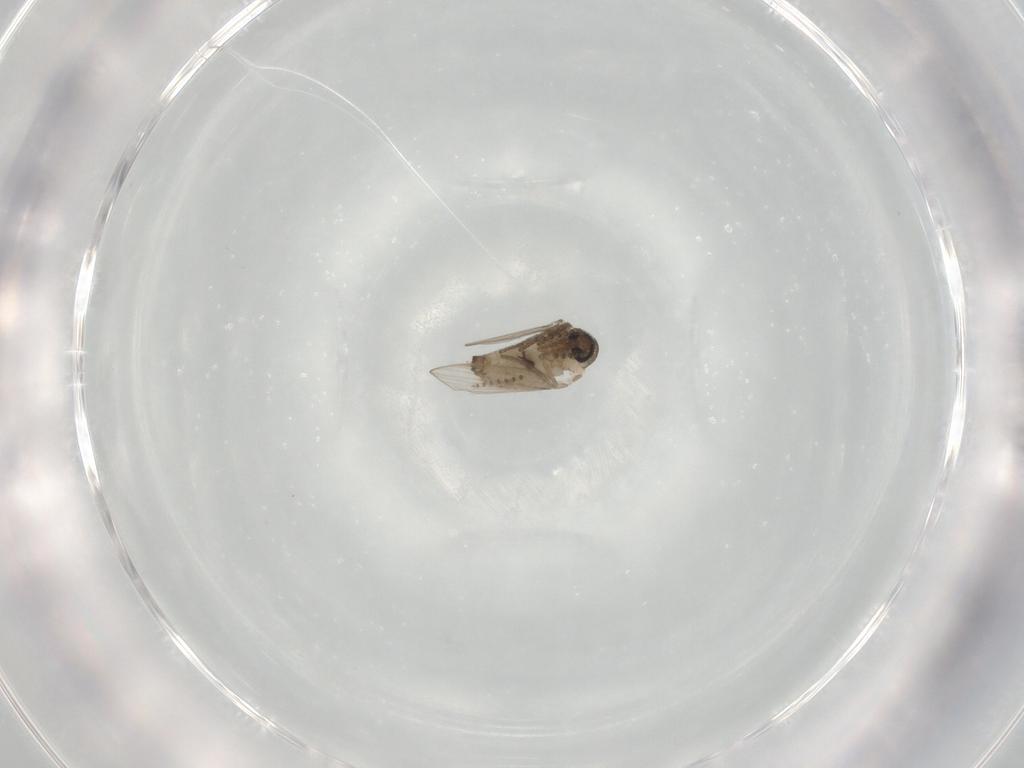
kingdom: Animalia
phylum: Arthropoda
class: Insecta
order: Diptera
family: Psychodidae
